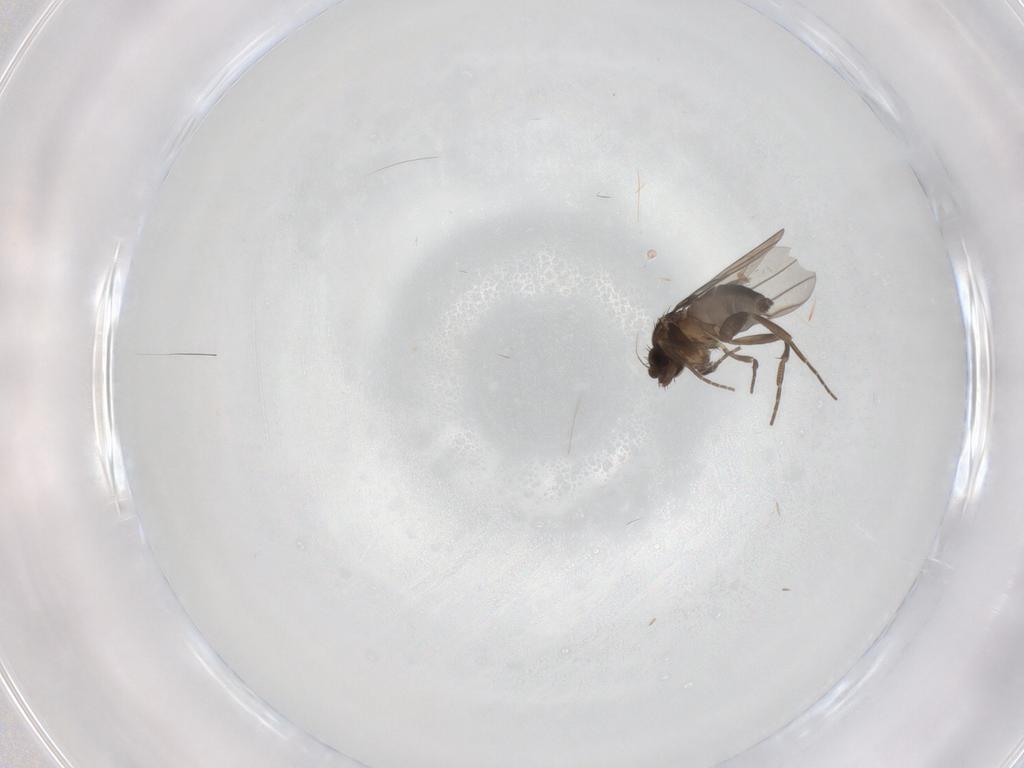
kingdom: Animalia
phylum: Arthropoda
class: Insecta
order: Diptera
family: Phoridae
